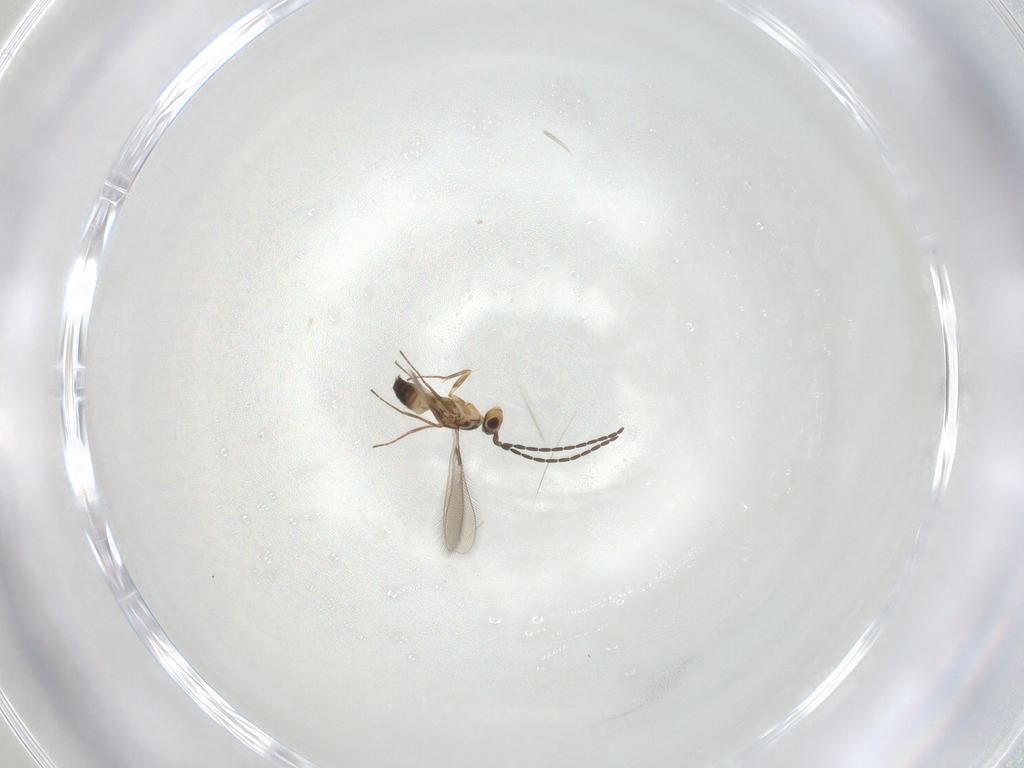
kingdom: Animalia
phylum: Arthropoda
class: Insecta
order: Hymenoptera
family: Mymaridae
